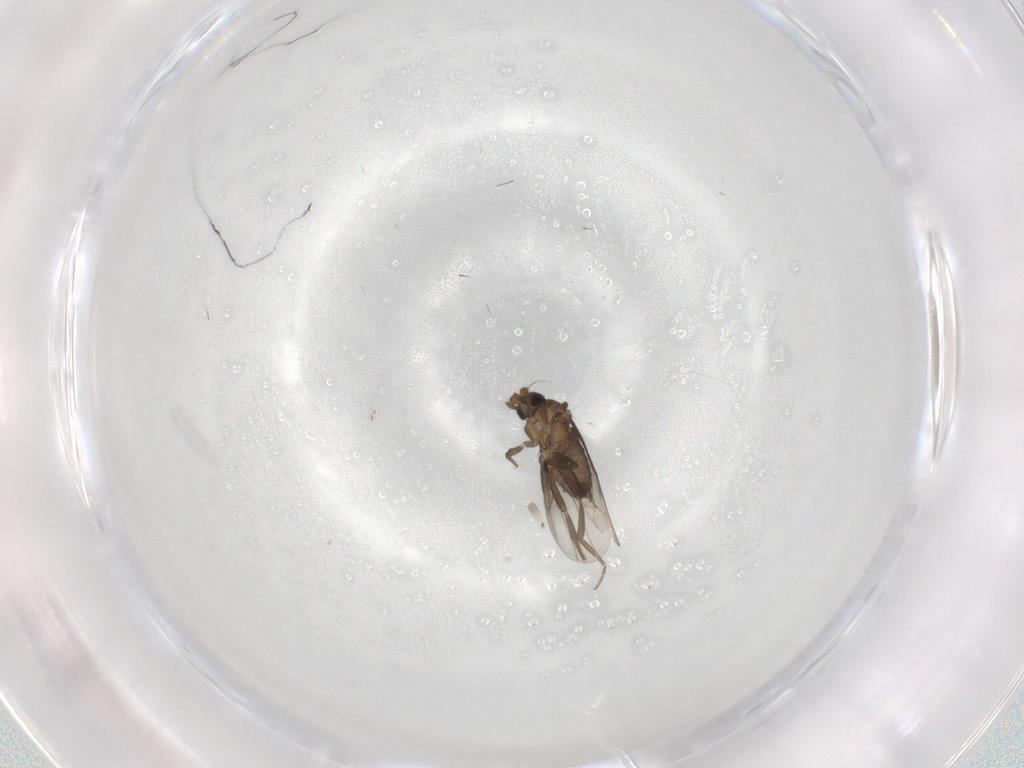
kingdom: Animalia
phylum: Arthropoda
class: Insecta
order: Diptera
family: Phoridae
